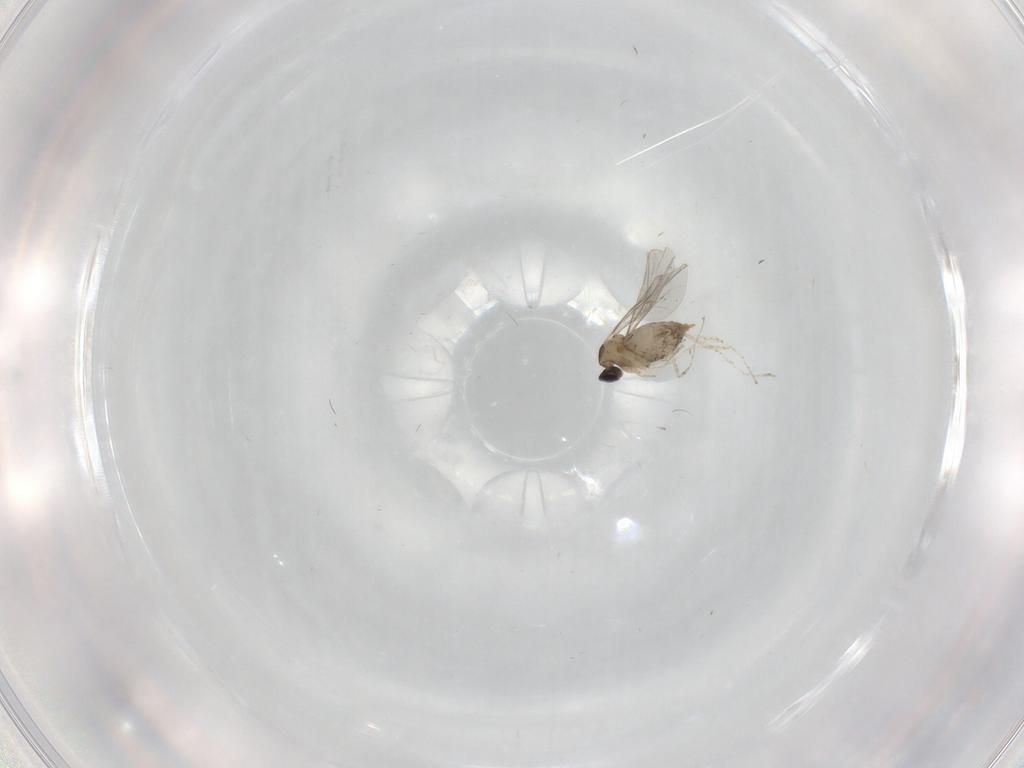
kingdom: Animalia
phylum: Arthropoda
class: Insecta
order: Diptera
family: Cecidomyiidae
